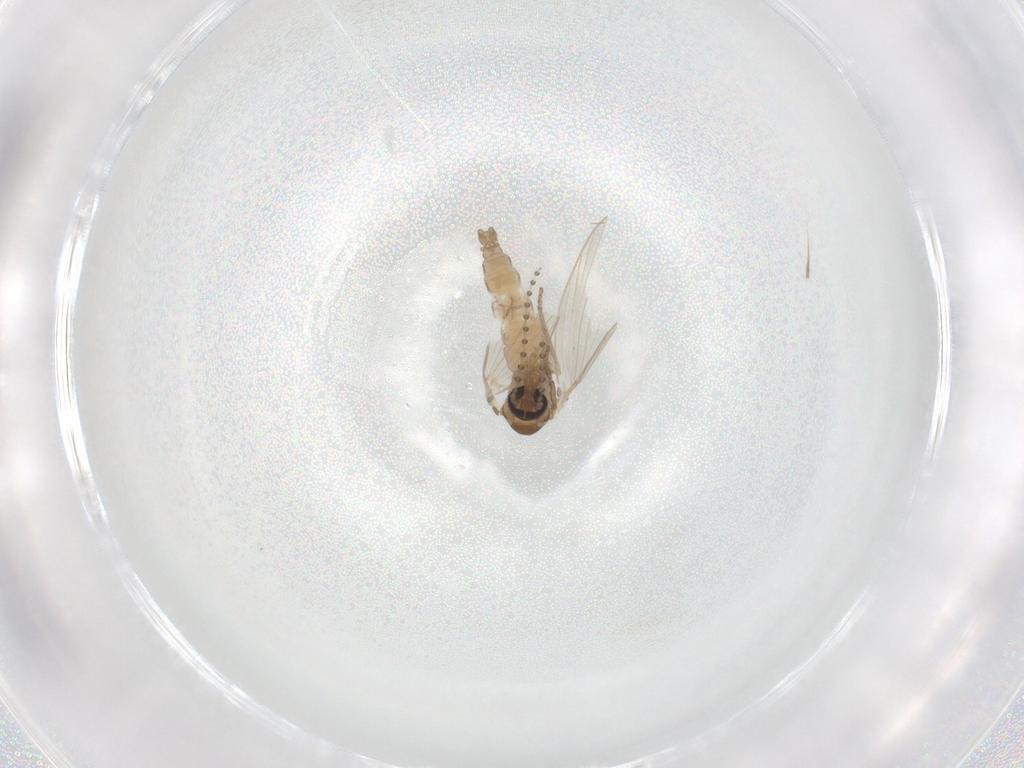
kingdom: Animalia
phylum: Arthropoda
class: Insecta
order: Diptera
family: Psychodidae
